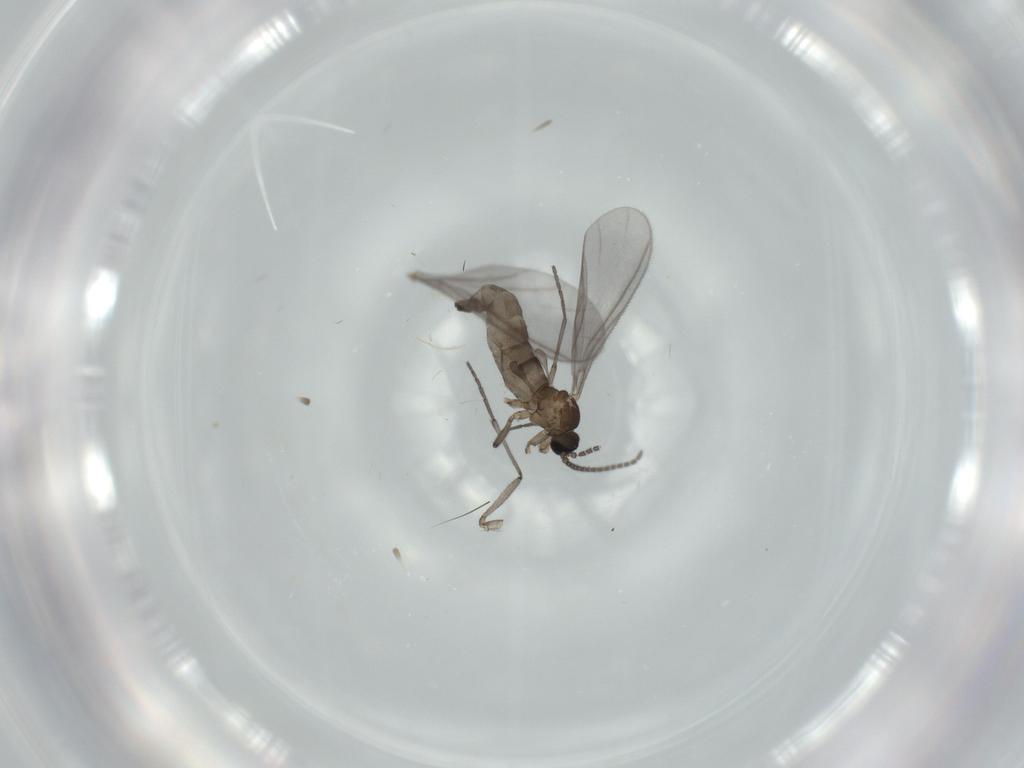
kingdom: Animalia
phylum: Arthropoda
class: Insecta
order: Diptera
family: Sciaridae
